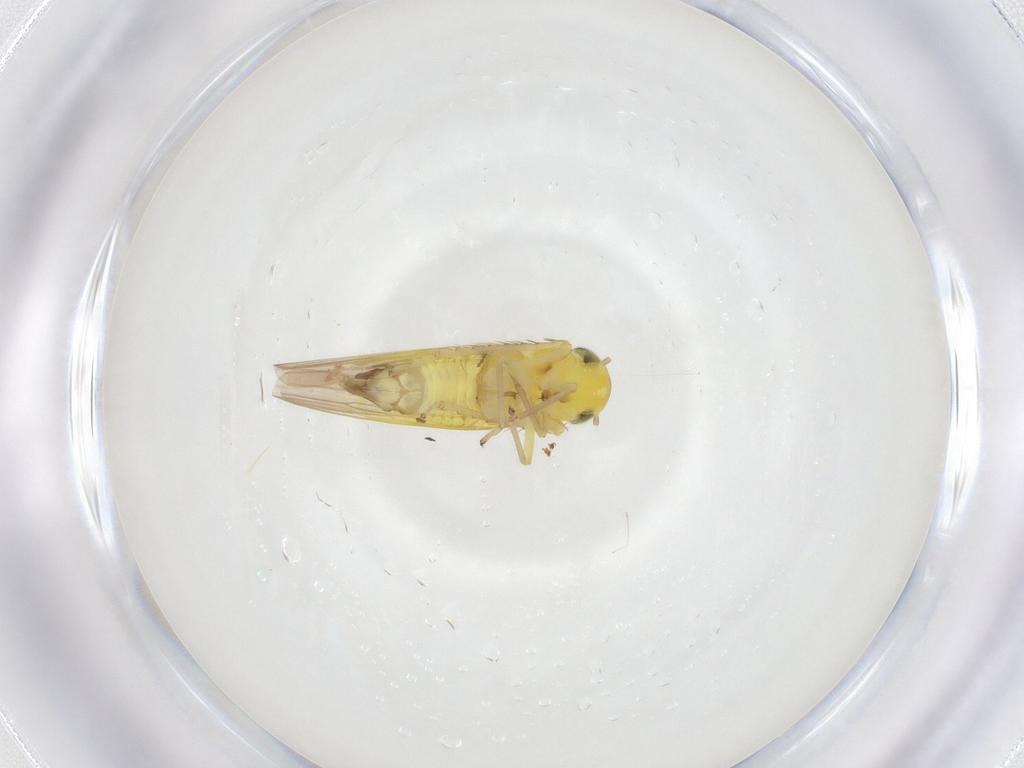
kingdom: Animalia
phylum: Arthropoda
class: Insecta
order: Hemiptera
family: Cicadellidae
